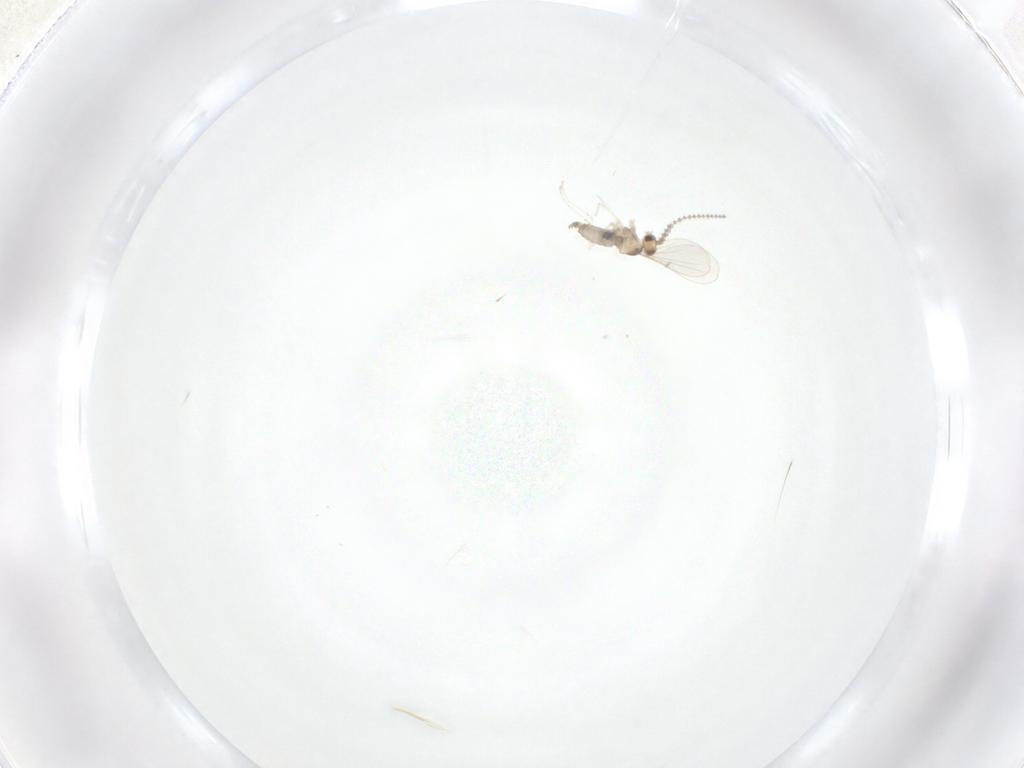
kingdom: Animalia
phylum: Arthropoda
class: Insecta
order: Diptera
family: Cecidomyiidae
